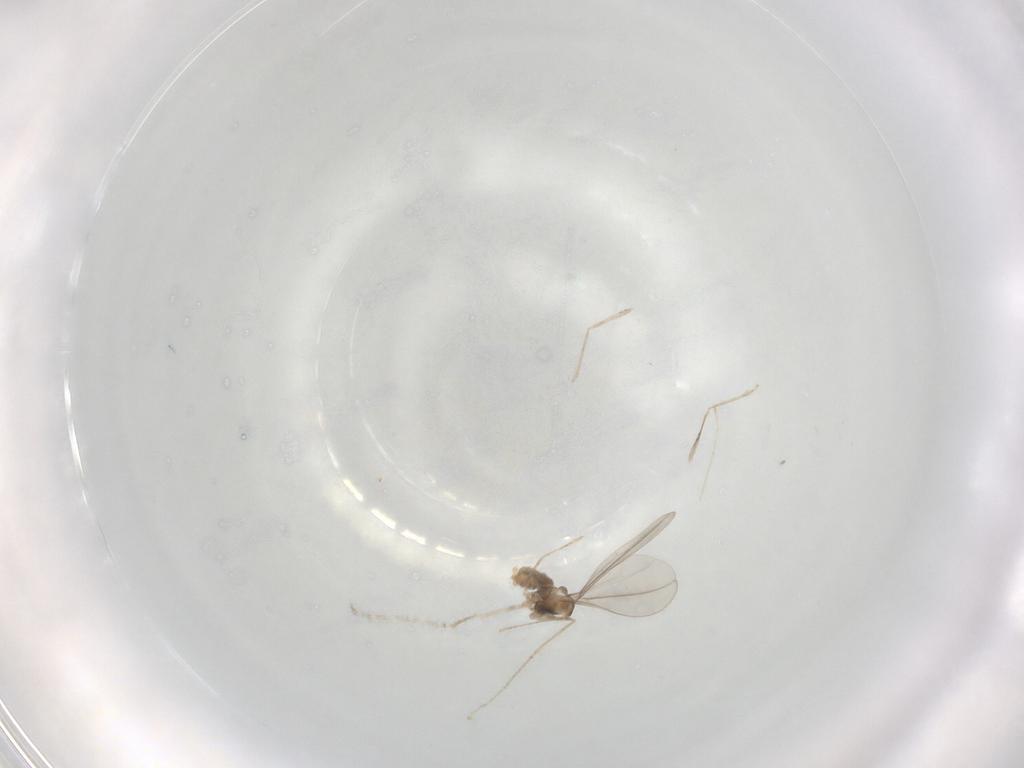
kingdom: Animalia
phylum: Arthropoda
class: Insecta
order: Diptera
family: Cecidomyiidae
